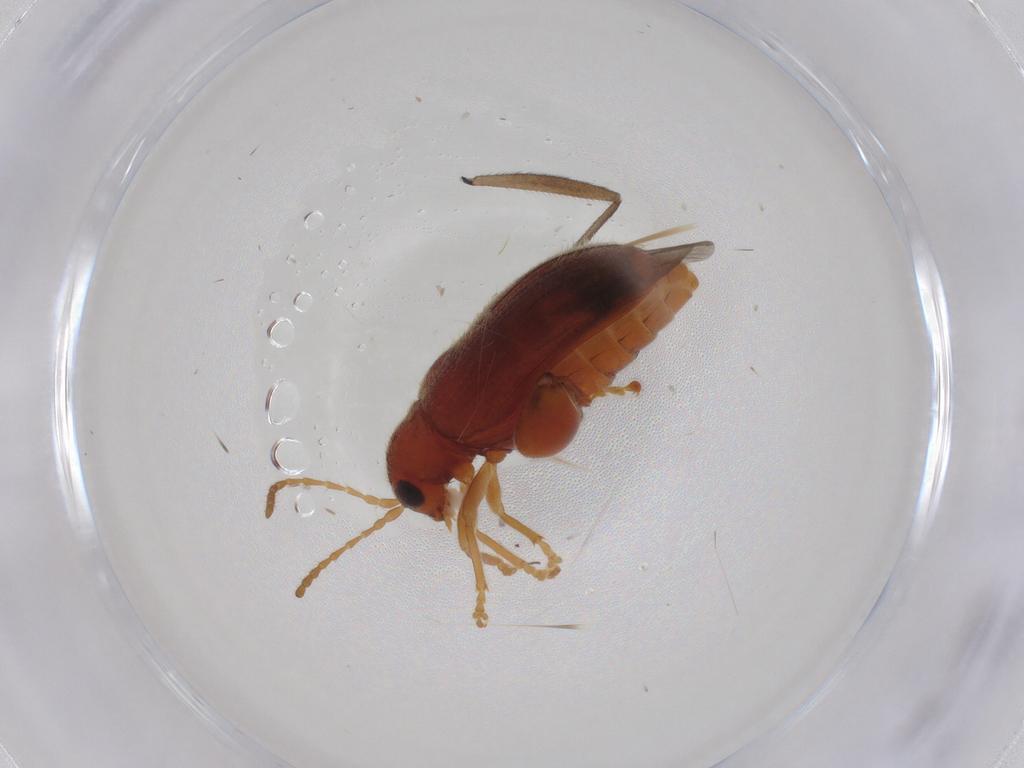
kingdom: Animalia
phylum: Arthropoda
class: Insecta
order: Coleoptera
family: Chrysomelidae
